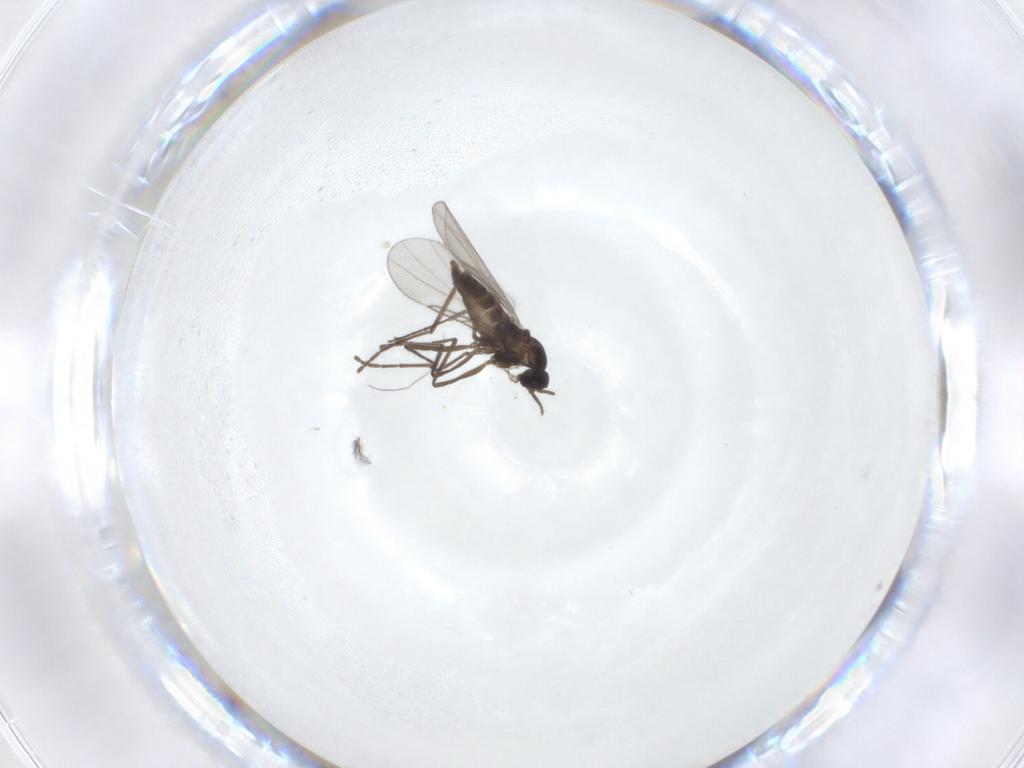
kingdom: Animalia
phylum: Arthropoda
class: Insecta
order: Diptera
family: Cecidomyiidae
